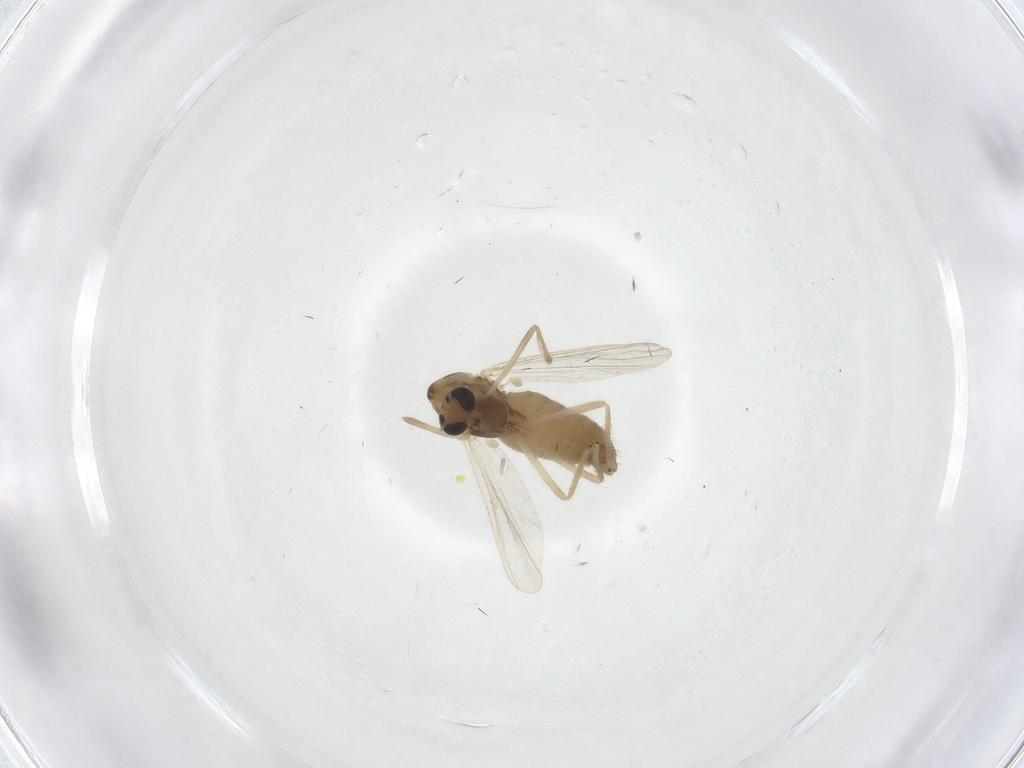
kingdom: Animalia
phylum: Arthropoda
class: Insecta
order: Diptera
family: Chironomidae
